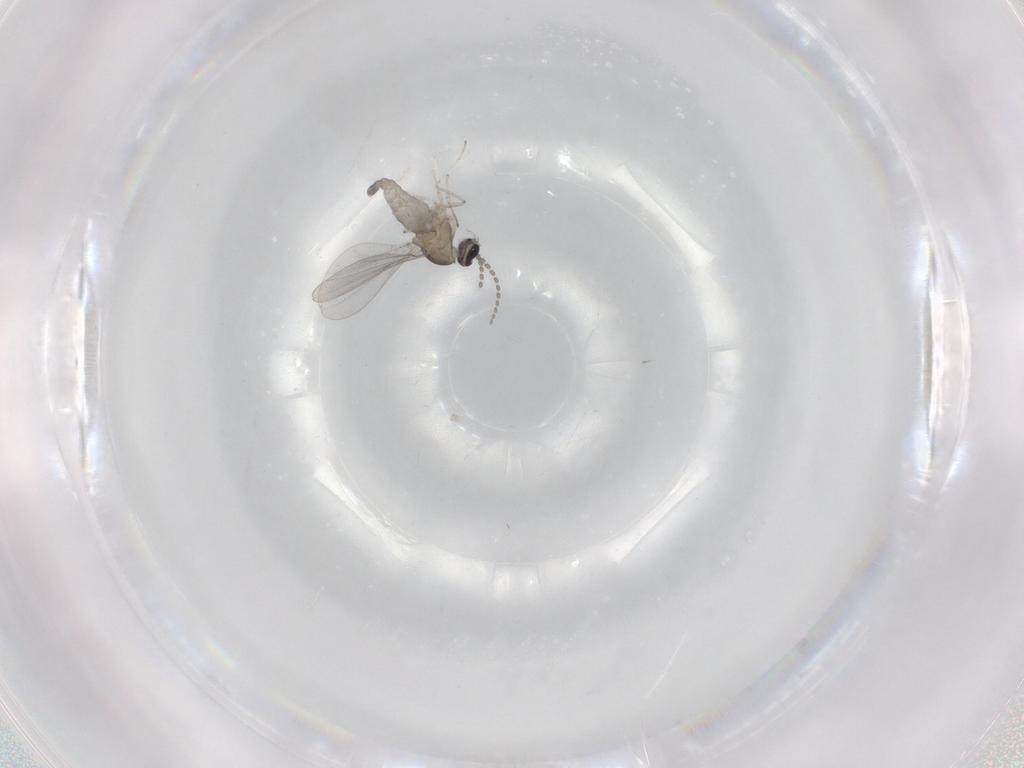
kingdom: Animalia
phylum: Arthropoda
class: Insecta
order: Diptera
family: Cecidomyiidae
